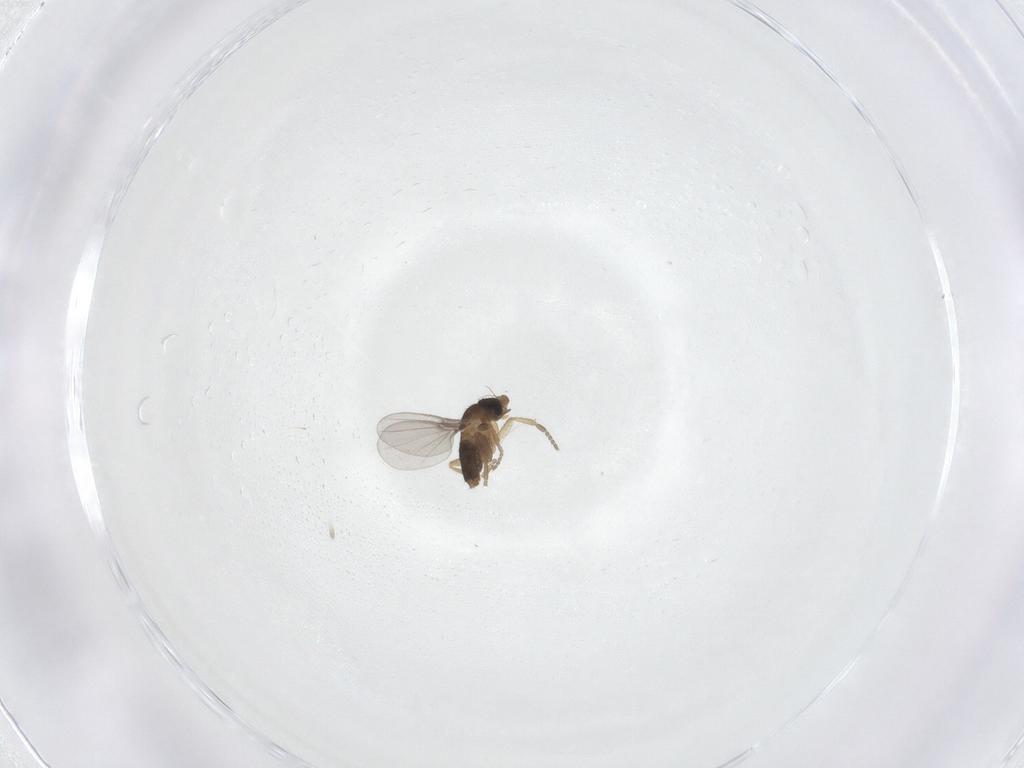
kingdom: Animalia
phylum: Arthropoda
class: Insecta
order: Diptera
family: Phoridae
